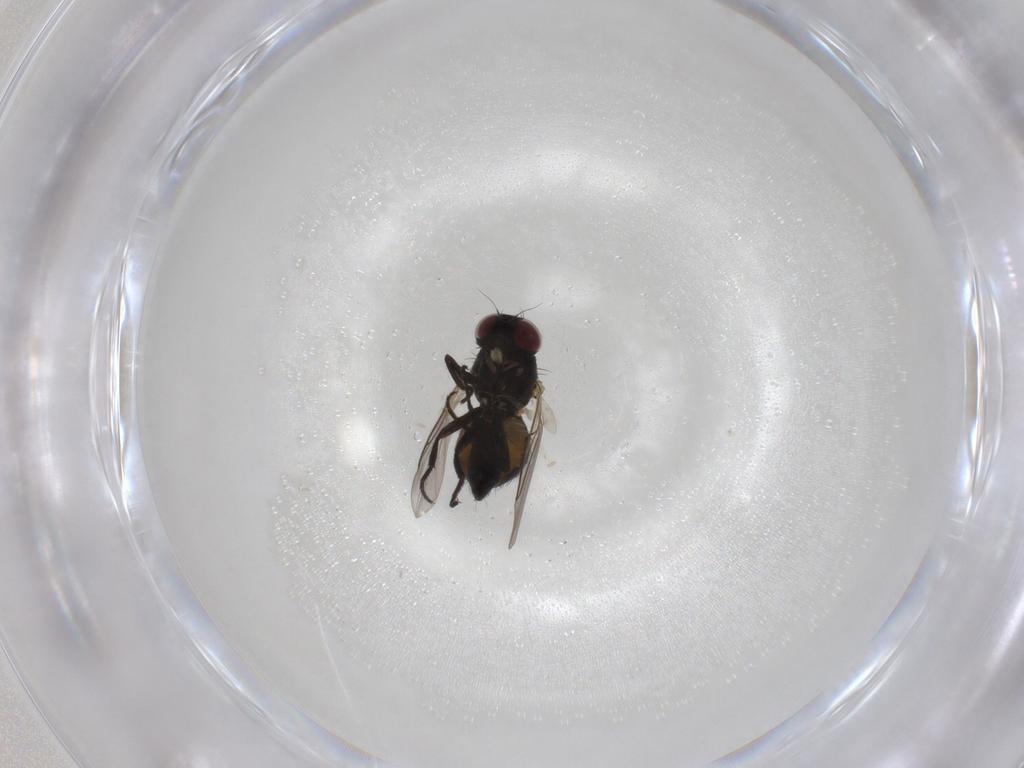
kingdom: Animalia
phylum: Arthropoda
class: Insecta
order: Diptera
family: Agromyzidae
